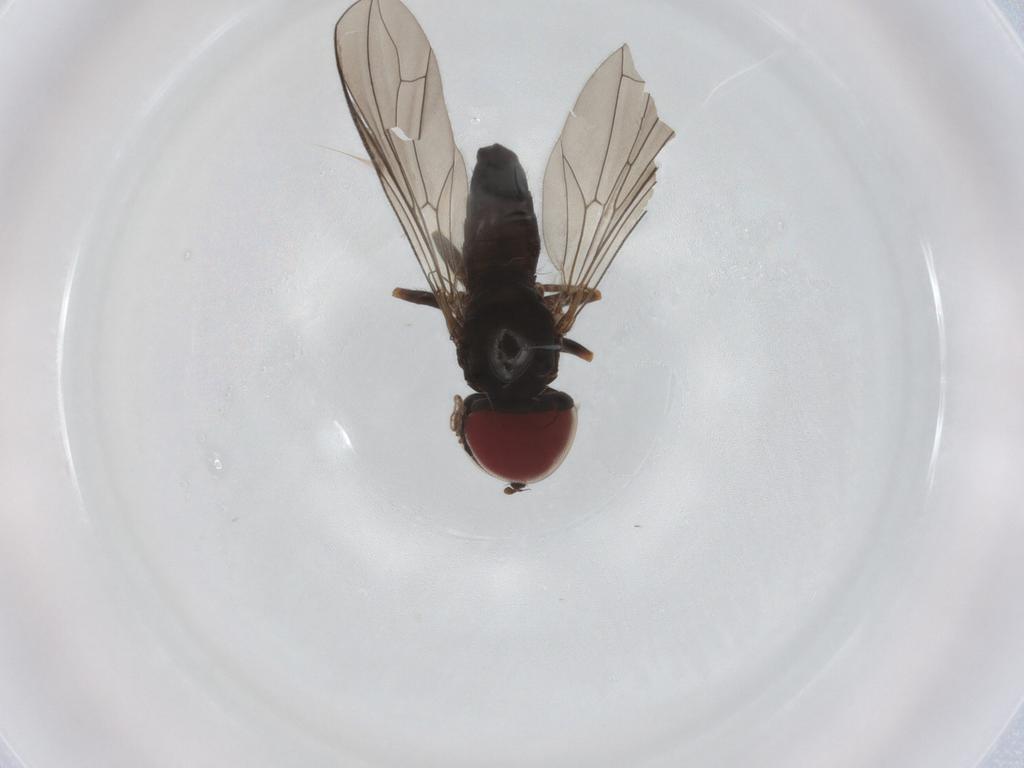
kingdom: Animalia
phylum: Arthropoda
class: Insecta
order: Diptera
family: Pipunculidae
